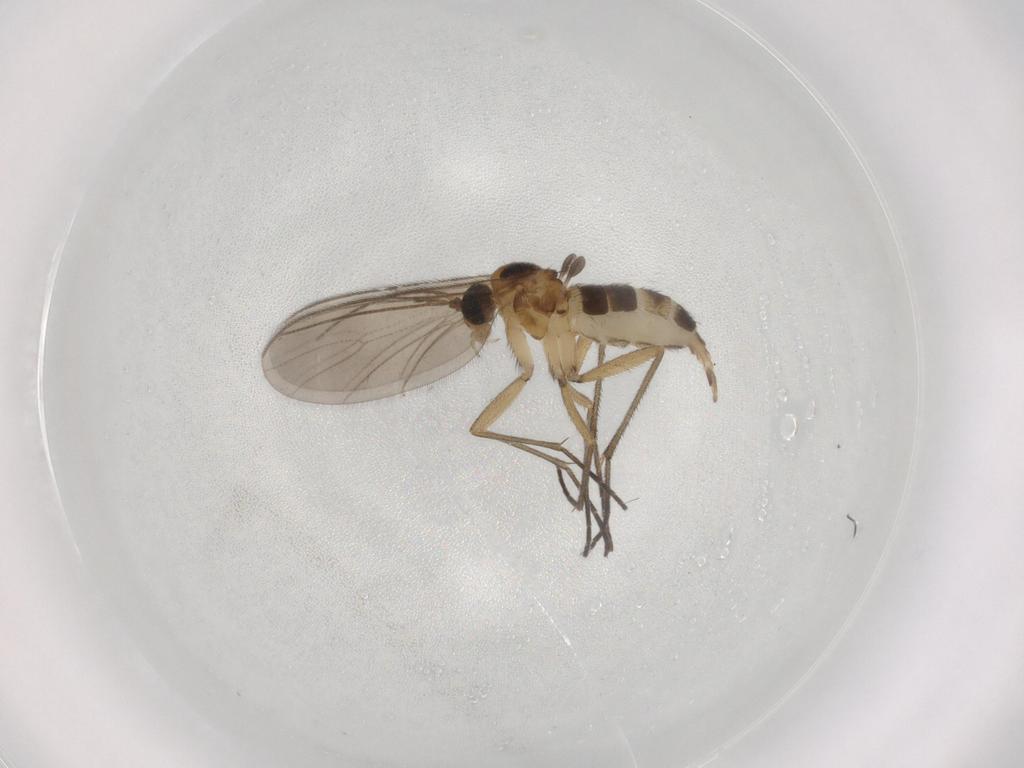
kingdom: Animalia
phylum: Arthropoda
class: Insecta
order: Diptera
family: Sciaridae
